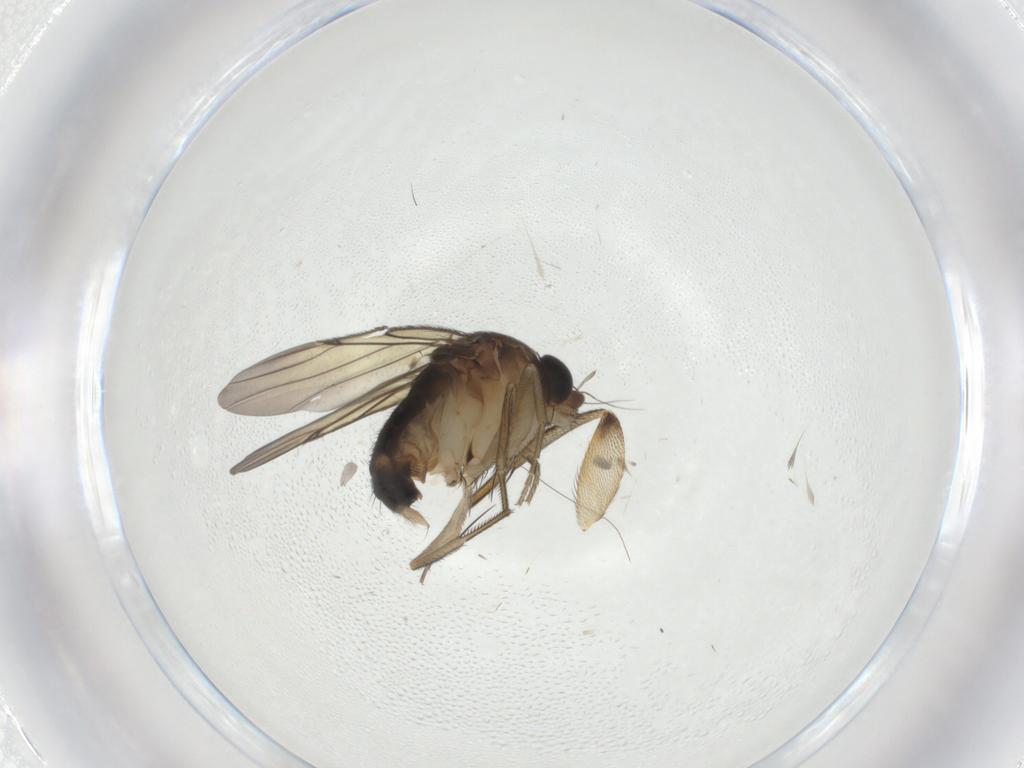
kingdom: Animalia
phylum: Arthropoda
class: Insecta
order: Diptera
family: Phoridae
